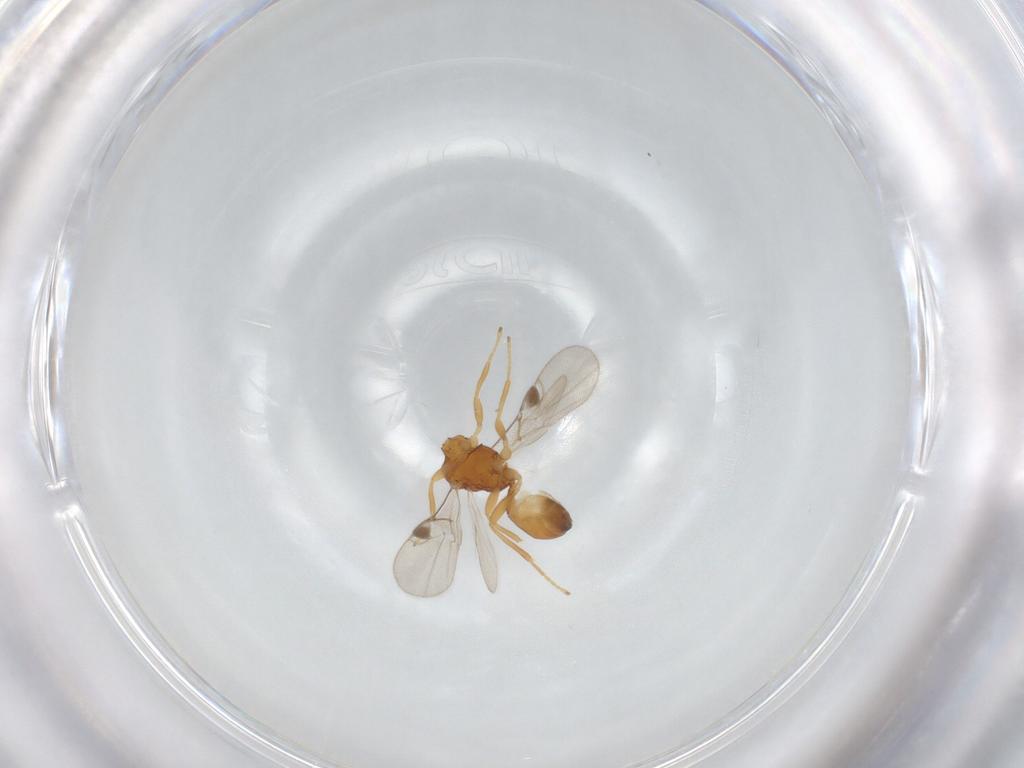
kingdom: Animalia
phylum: Arthropoda
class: Insecta
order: Hymenoptera
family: Braconidae
